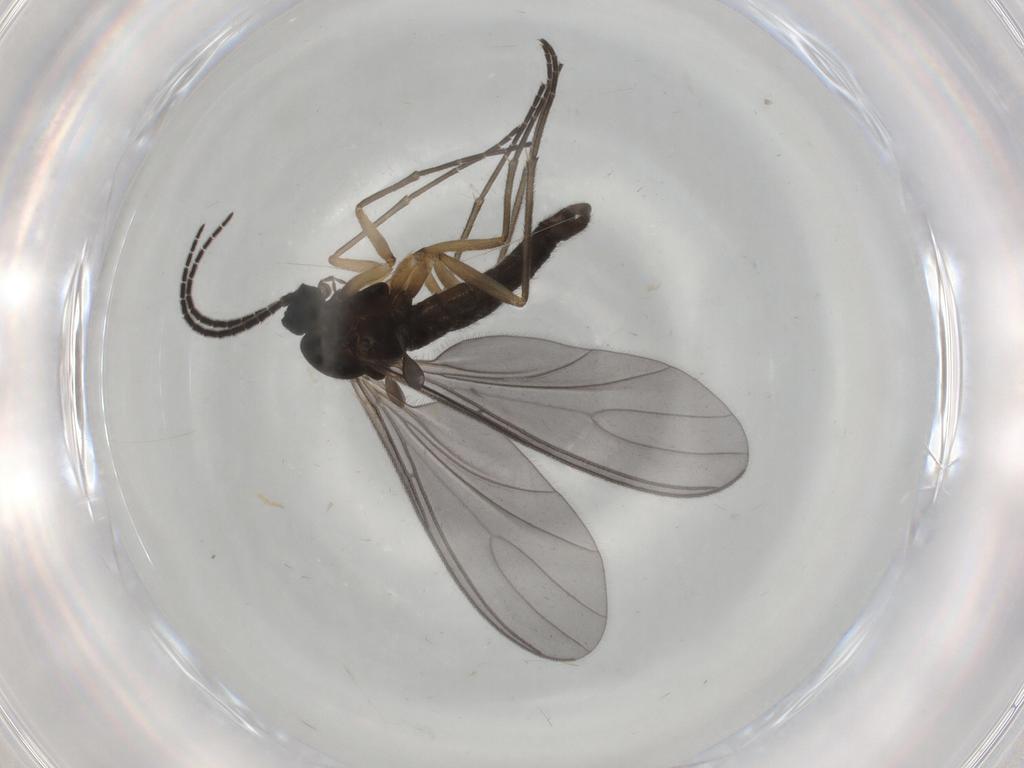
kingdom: Animalia
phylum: Arthropoda
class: Insecta
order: Diptera
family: Sciaridae
